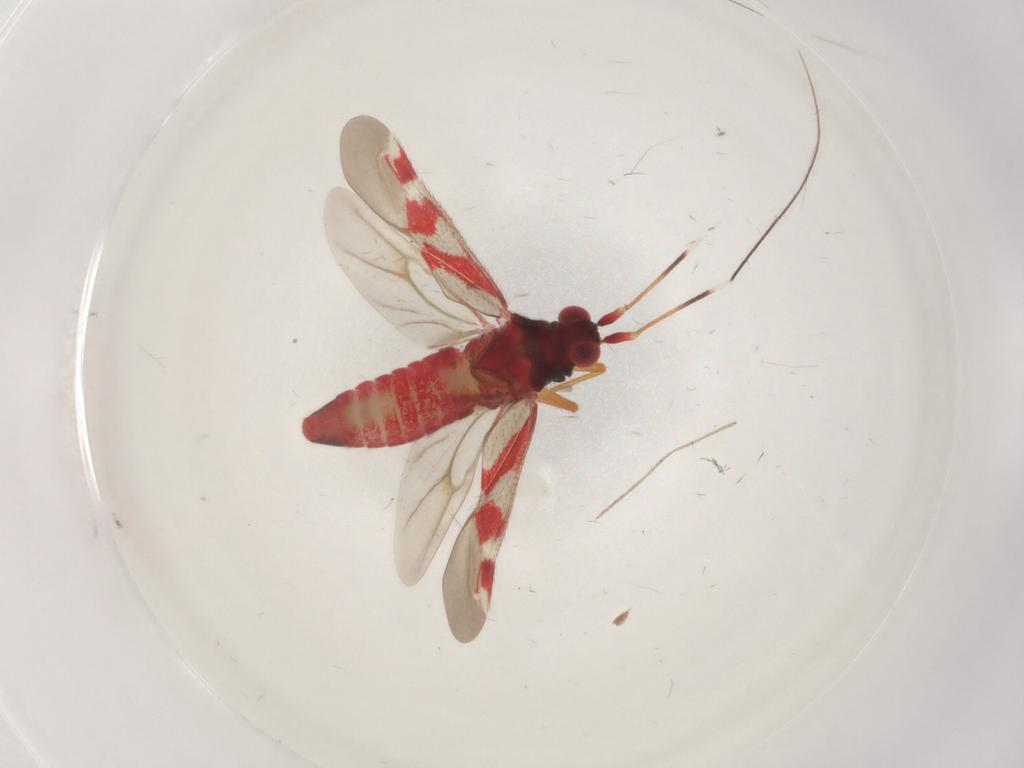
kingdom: Animalia
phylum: Arthropoda
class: Insecta
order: Hemiptera
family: Miridae
